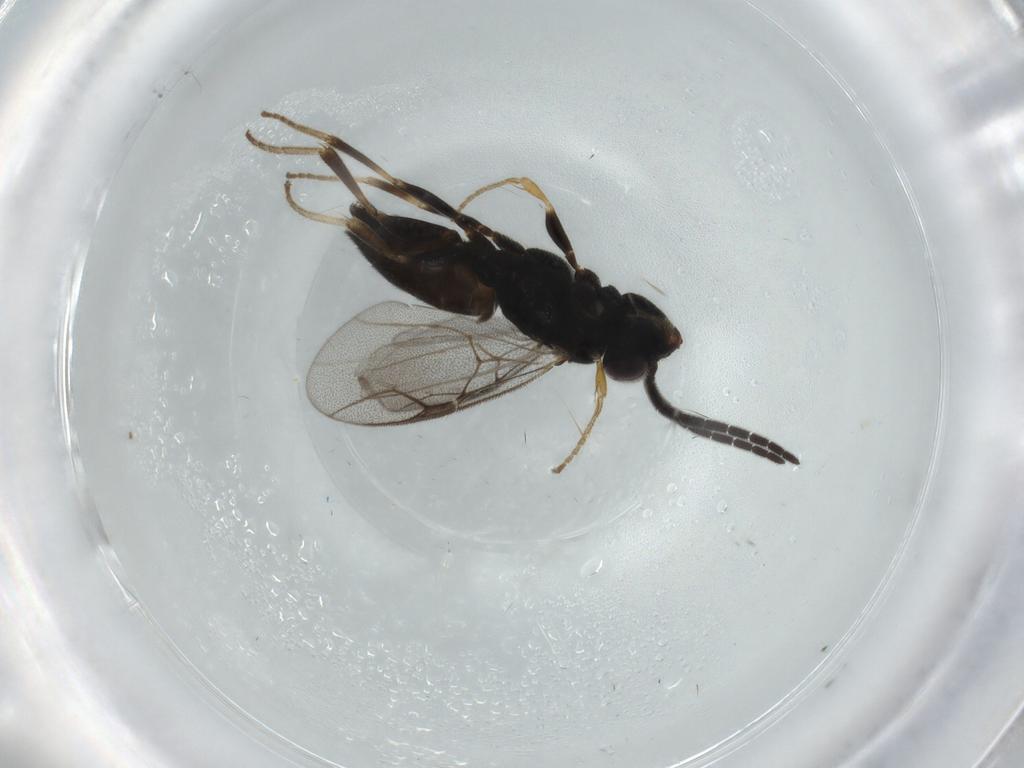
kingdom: Animalia
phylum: Arthropoda
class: Insecta
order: Hymenoptera
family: Dryinidae
